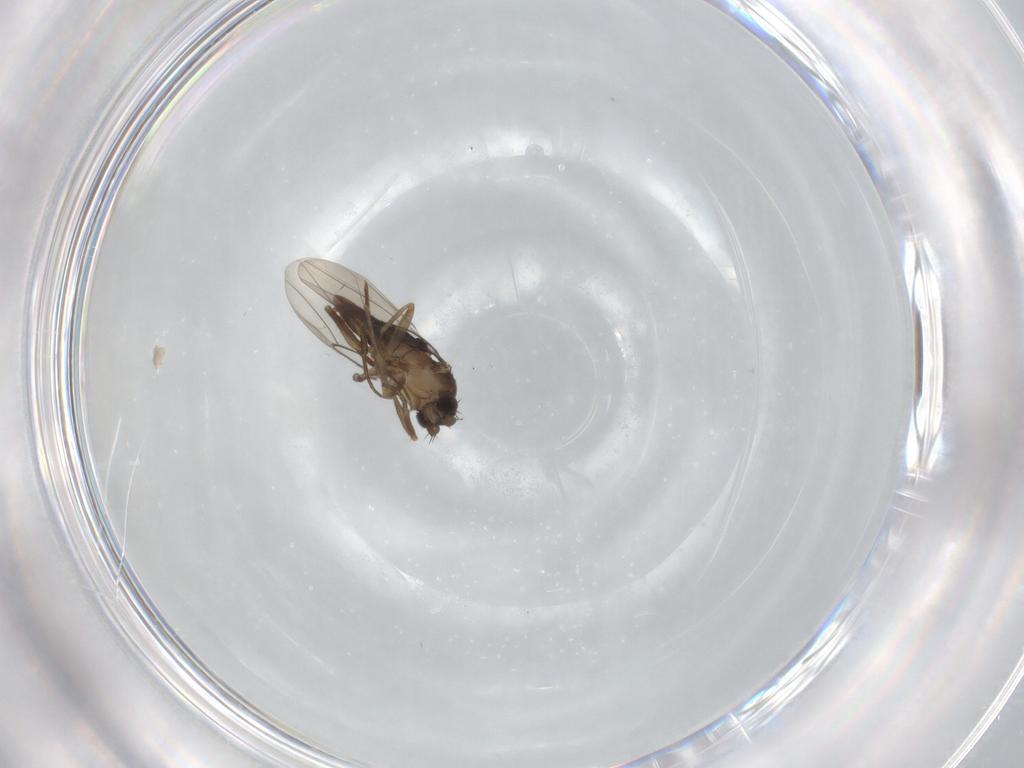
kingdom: Animalia
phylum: Arthropoda
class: Insecta
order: Diptera
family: Phoridae
